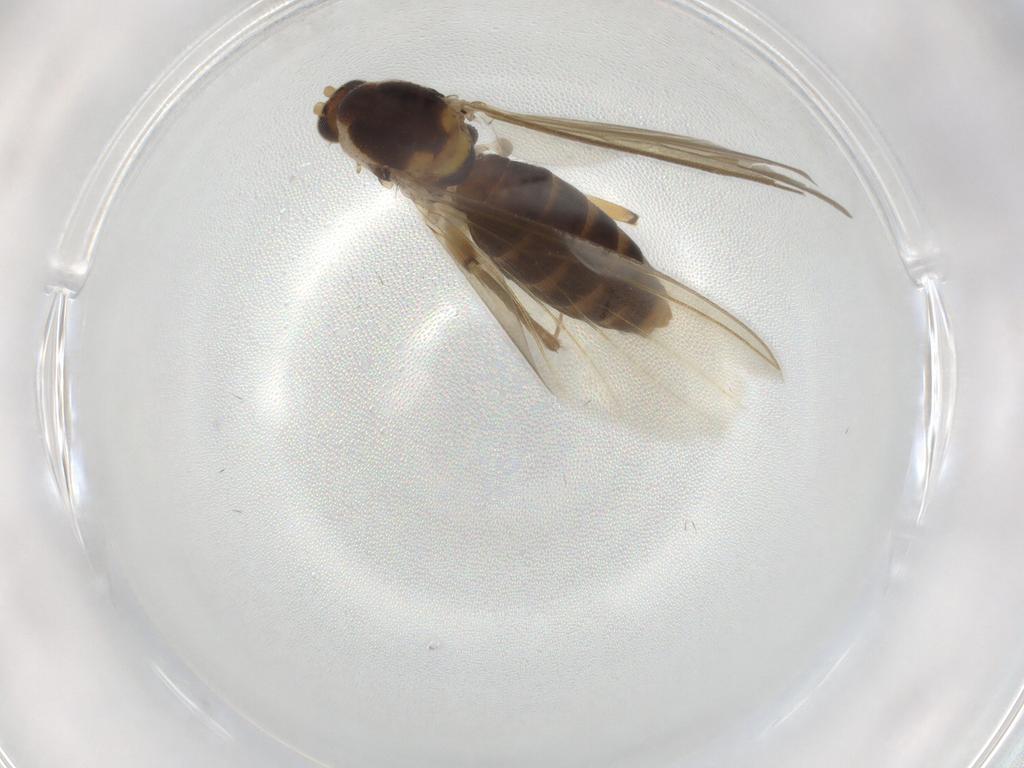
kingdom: Animalia
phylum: Arthropoda
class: Insecta
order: Diptera
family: Mycetophilidae
